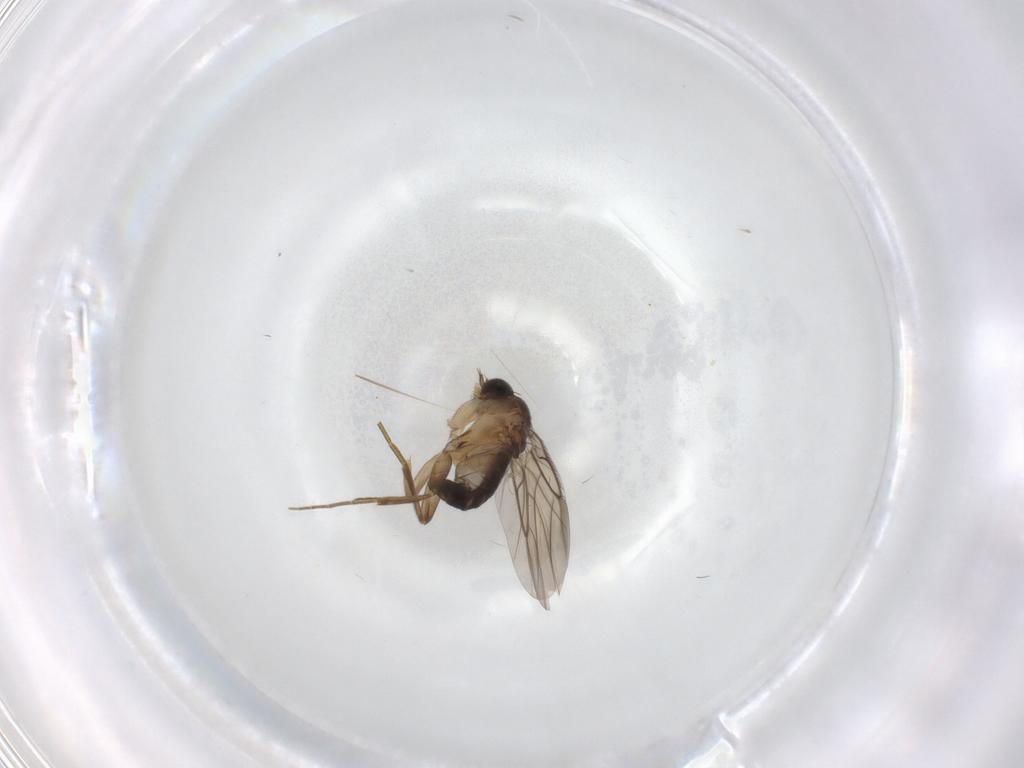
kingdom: Animalia
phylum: Arthropoda
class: Insecta
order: Diptera
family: Phoridae
